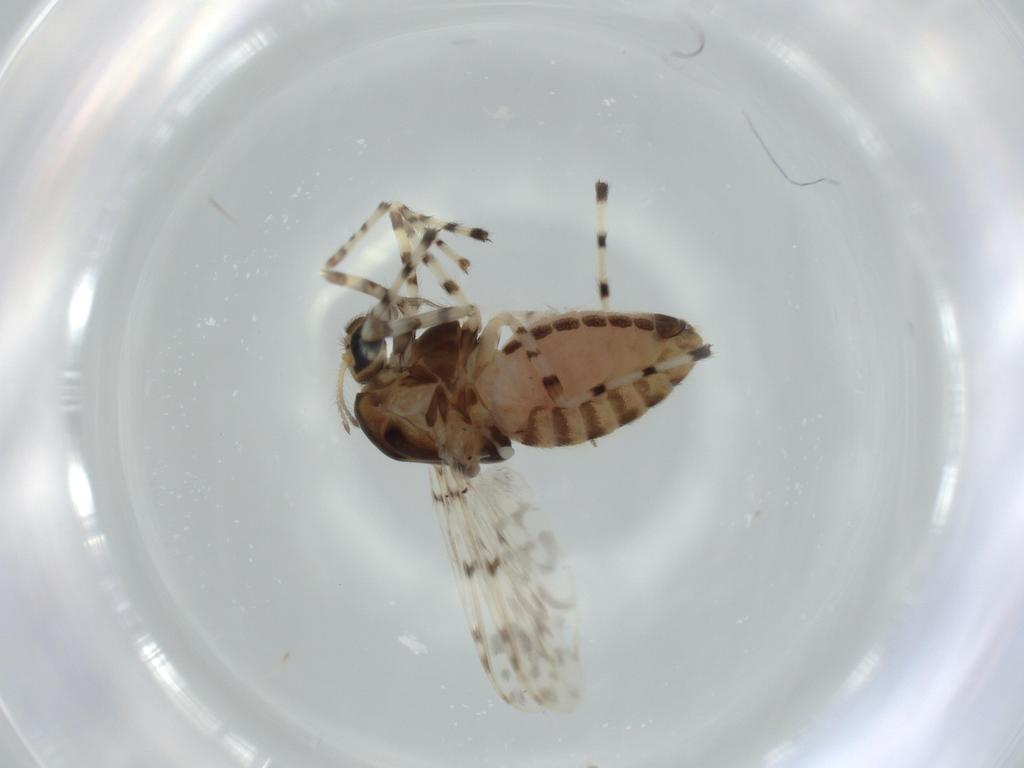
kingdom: Animalia
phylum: Arthropoda
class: Insecta
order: Diptera
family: Chironomidae
